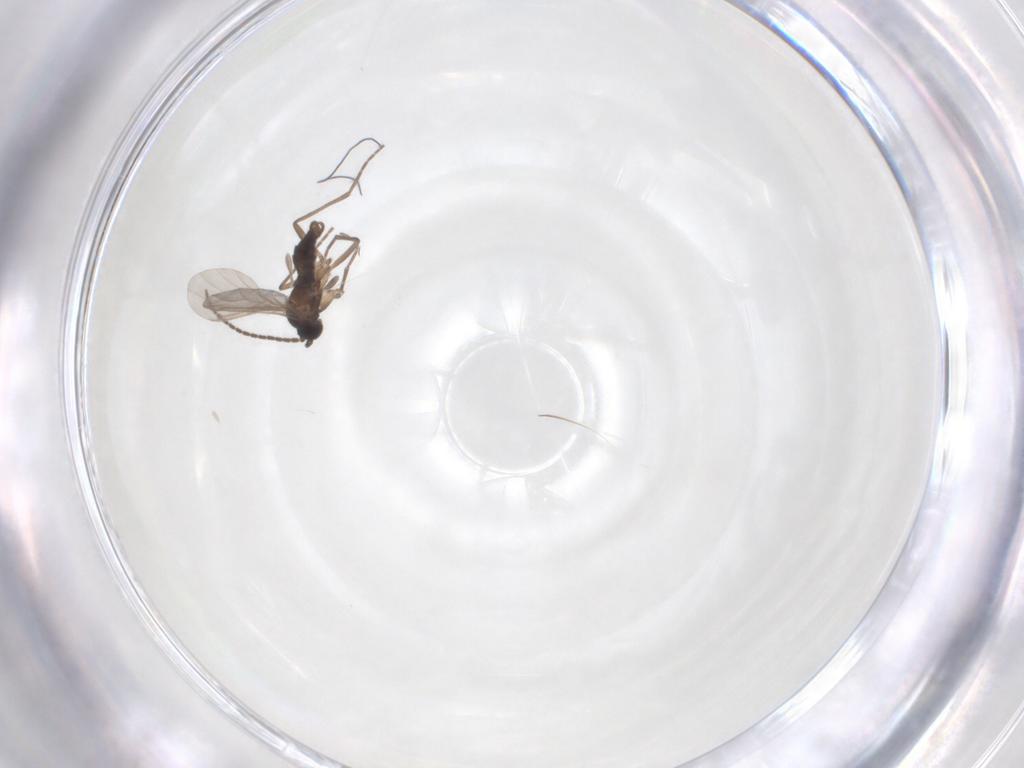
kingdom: Animalia
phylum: Arthropoda
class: Insecta
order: Diptera
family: Sciaridae
